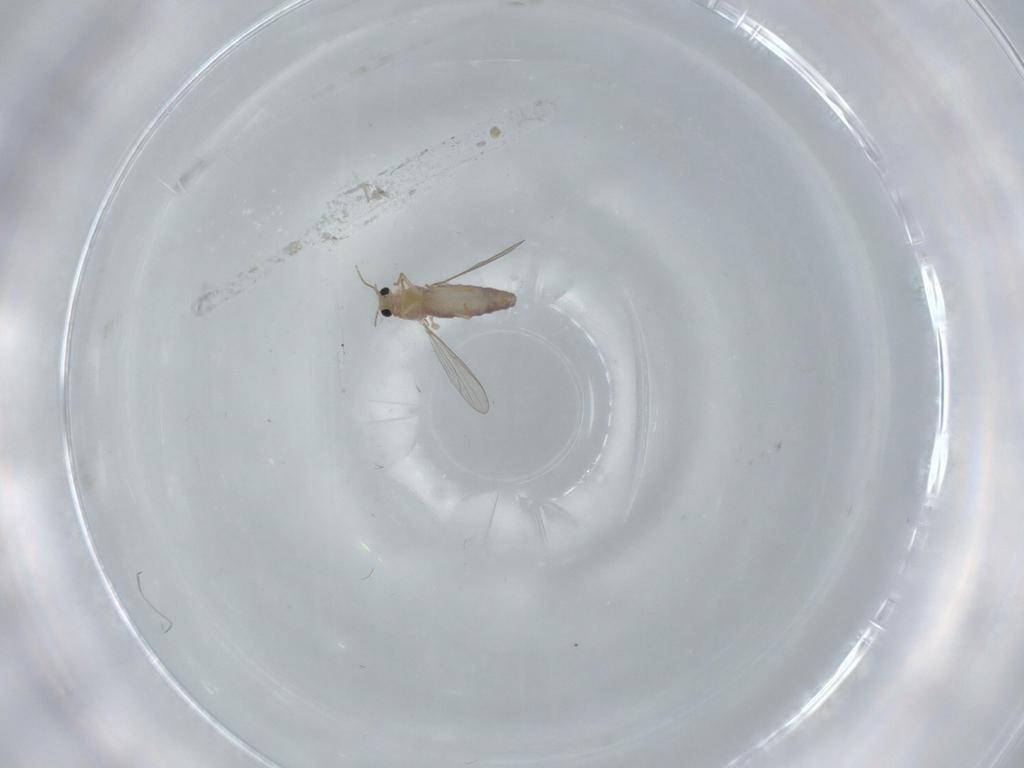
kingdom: Animalia
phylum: Arthropoda
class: Insecta
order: Diptera
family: Chironomidae
